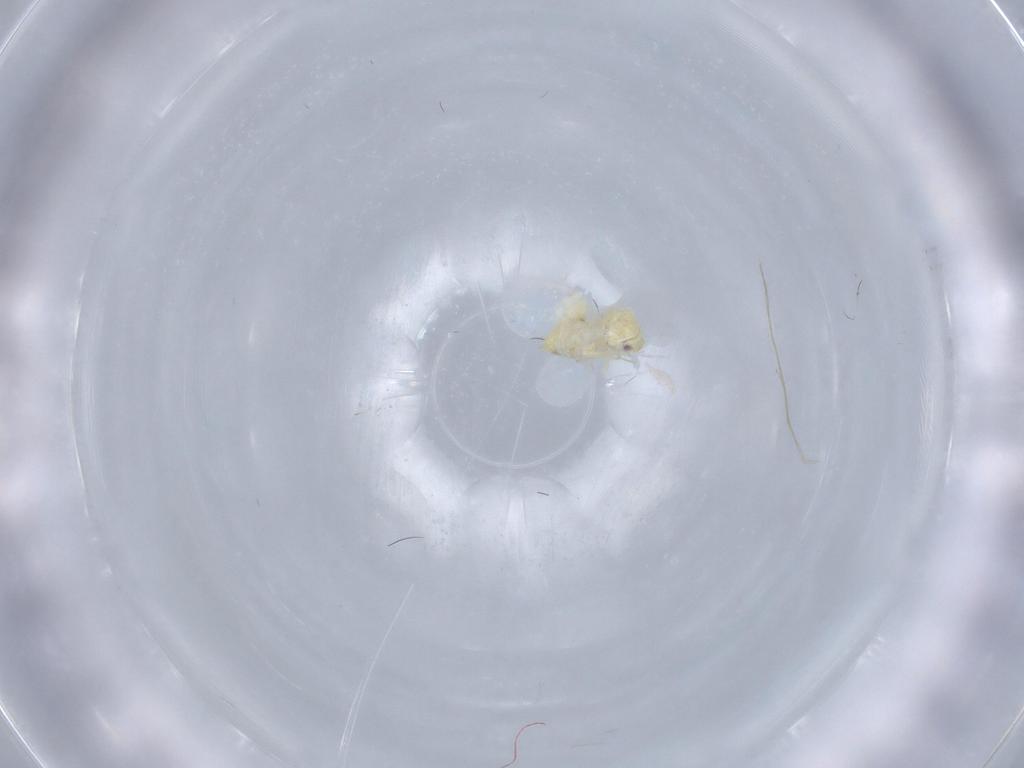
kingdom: Animalia
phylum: Arthropoda
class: Insecta
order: Hemiptera
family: Aleyrodidae
